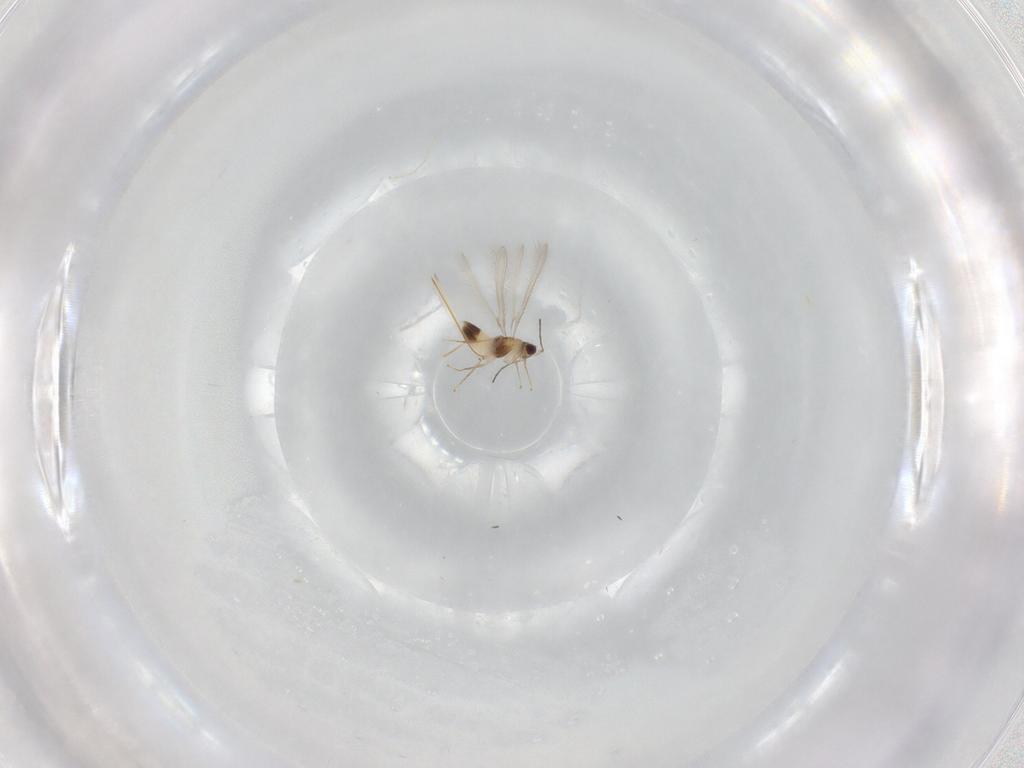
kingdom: Animalia
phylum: Arthropoda
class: Insecta
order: Hymenoptera
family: Mymaridae
